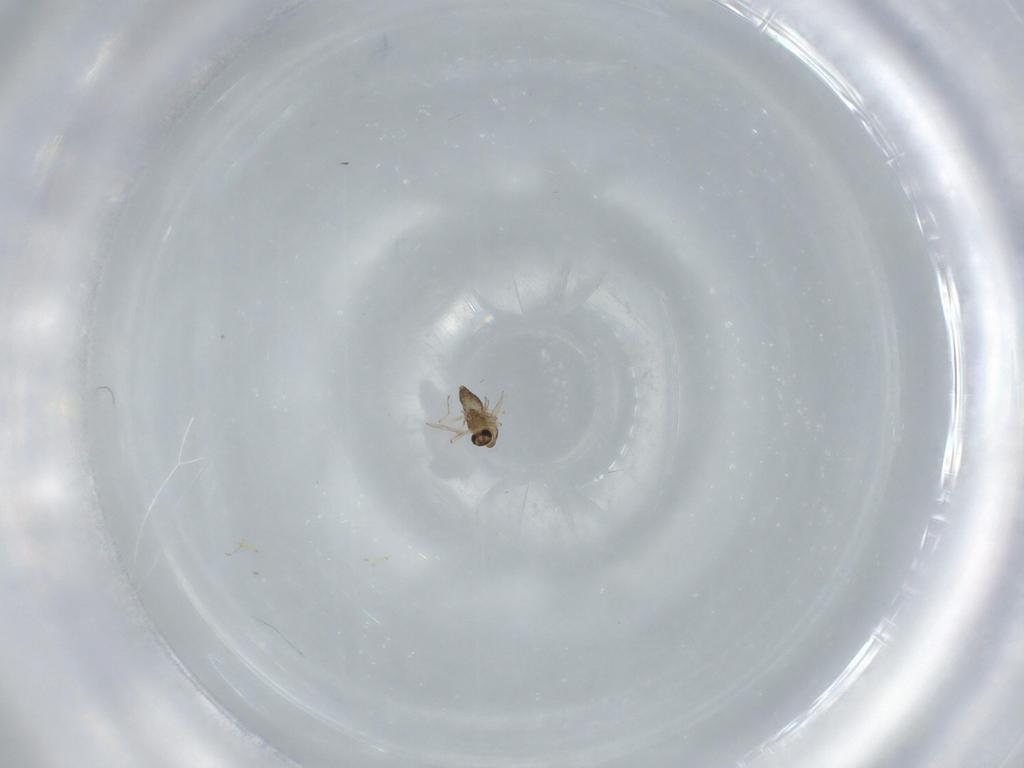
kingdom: Animalia
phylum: Arthropoda
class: Insecta
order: Diptera
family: Chironomidae
